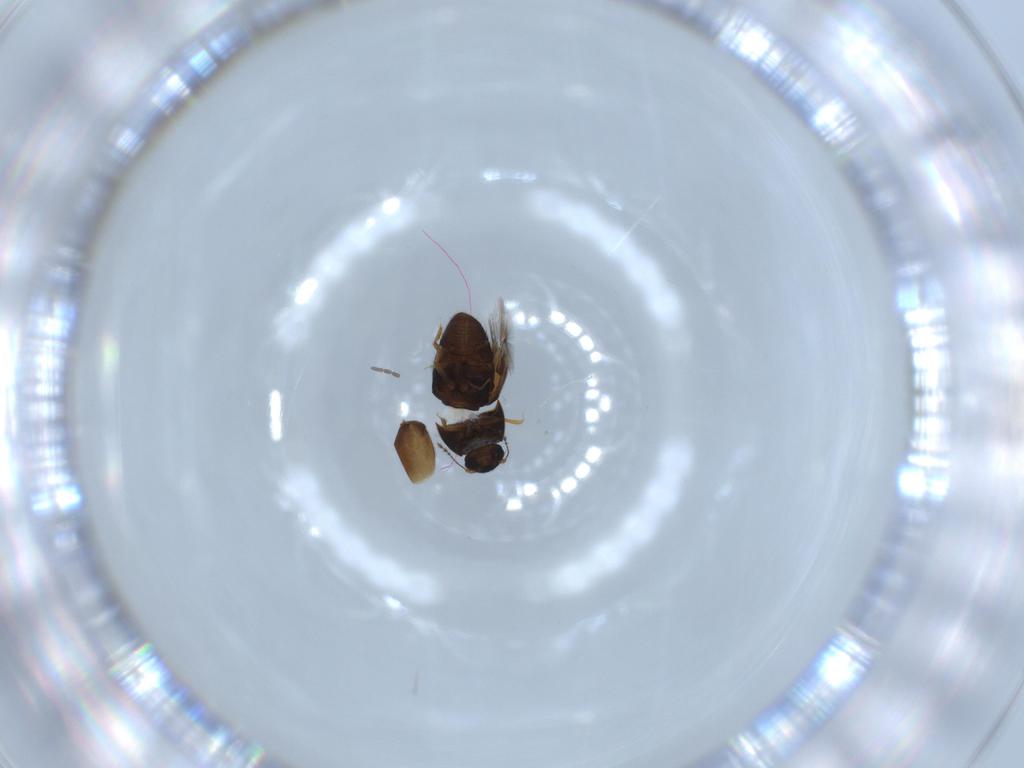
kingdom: Animalia
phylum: Arthropoda
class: Insecta
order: Coleoptera
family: Ptiliidae
